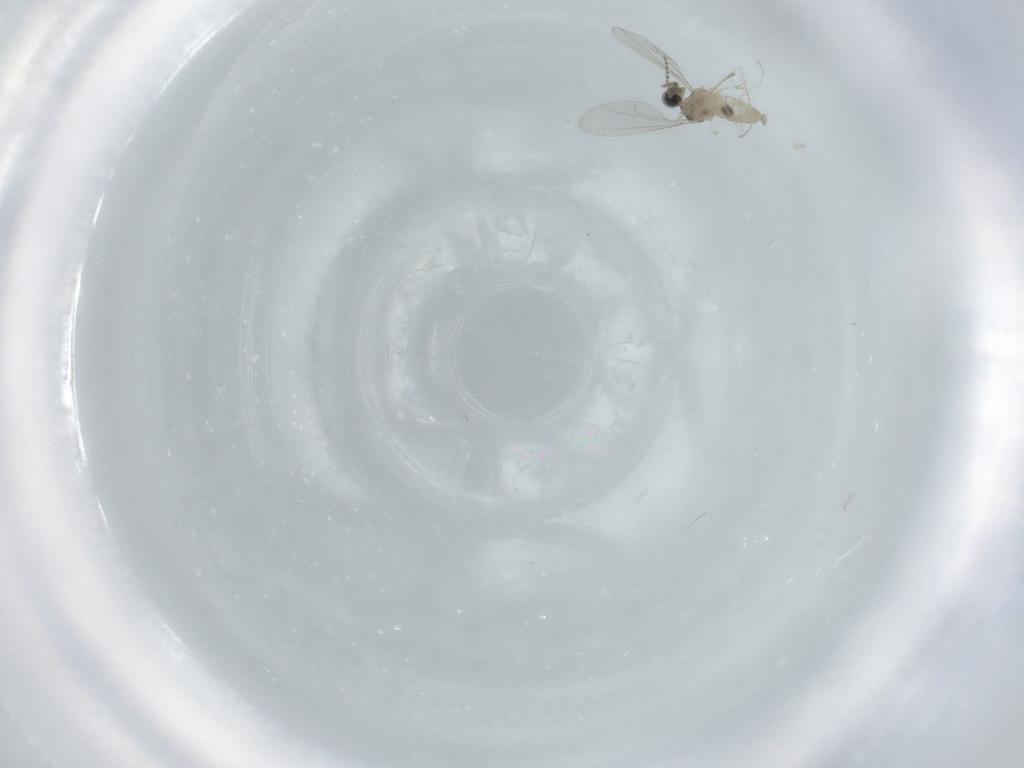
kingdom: Animalia
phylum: Arthropoda
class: Insecta
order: Diptera
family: Cecidomyiidae
